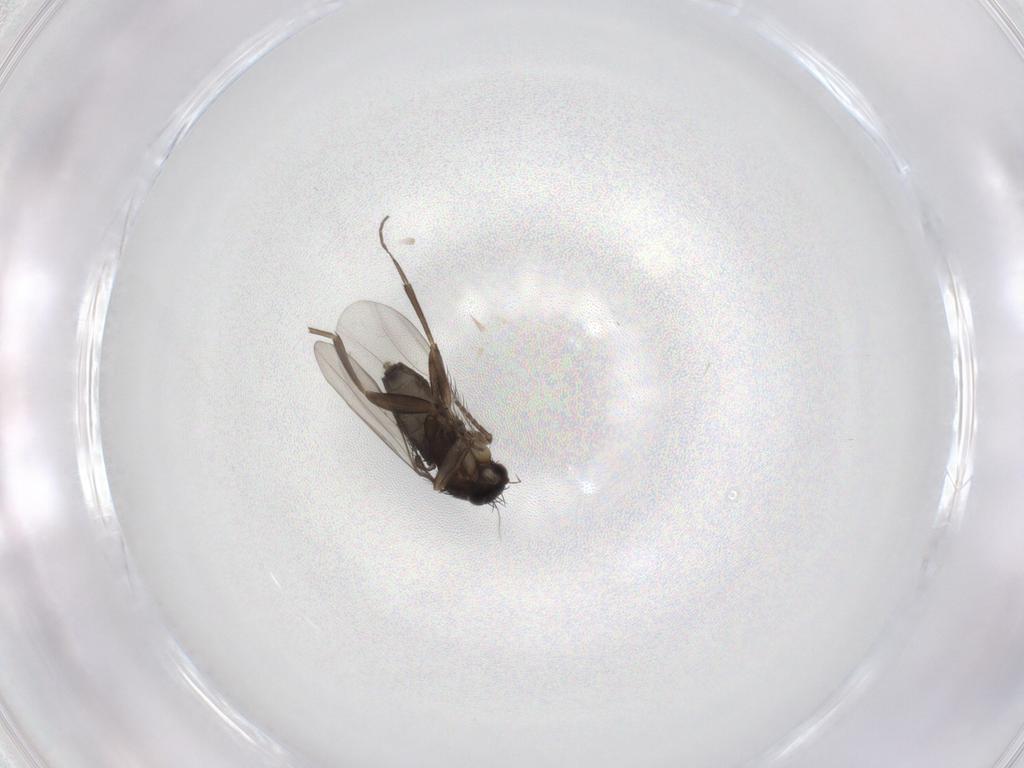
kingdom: Animalia
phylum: Arthropoda
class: Insecta
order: Diptera
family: Phoridae
